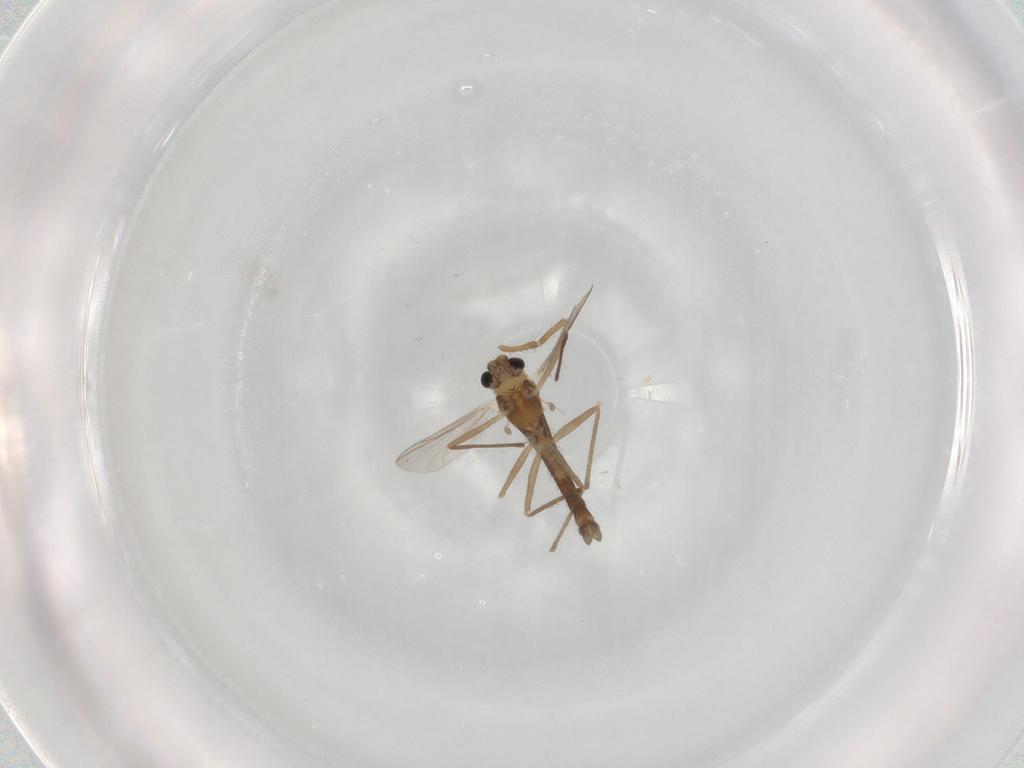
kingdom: Animalia
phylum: Arthropoda
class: Insecta
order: Diptera
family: Chironomidae
